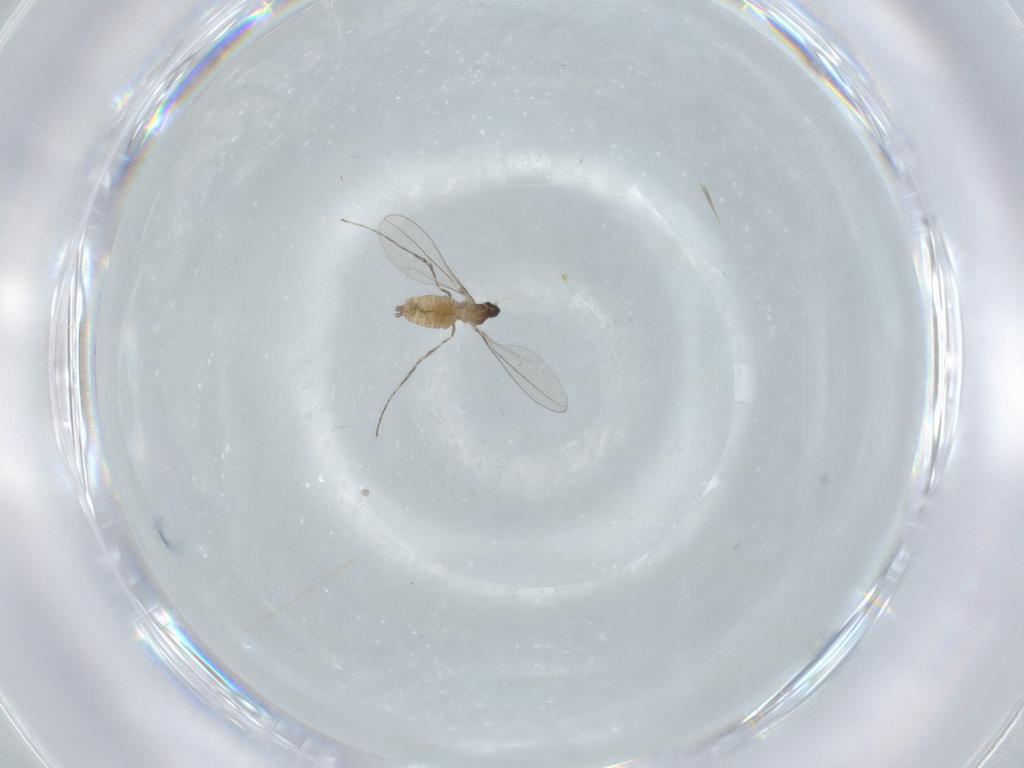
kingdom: Animalia
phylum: Arthropoda
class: Insecta
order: Diptera
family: Cecidomyiidae
